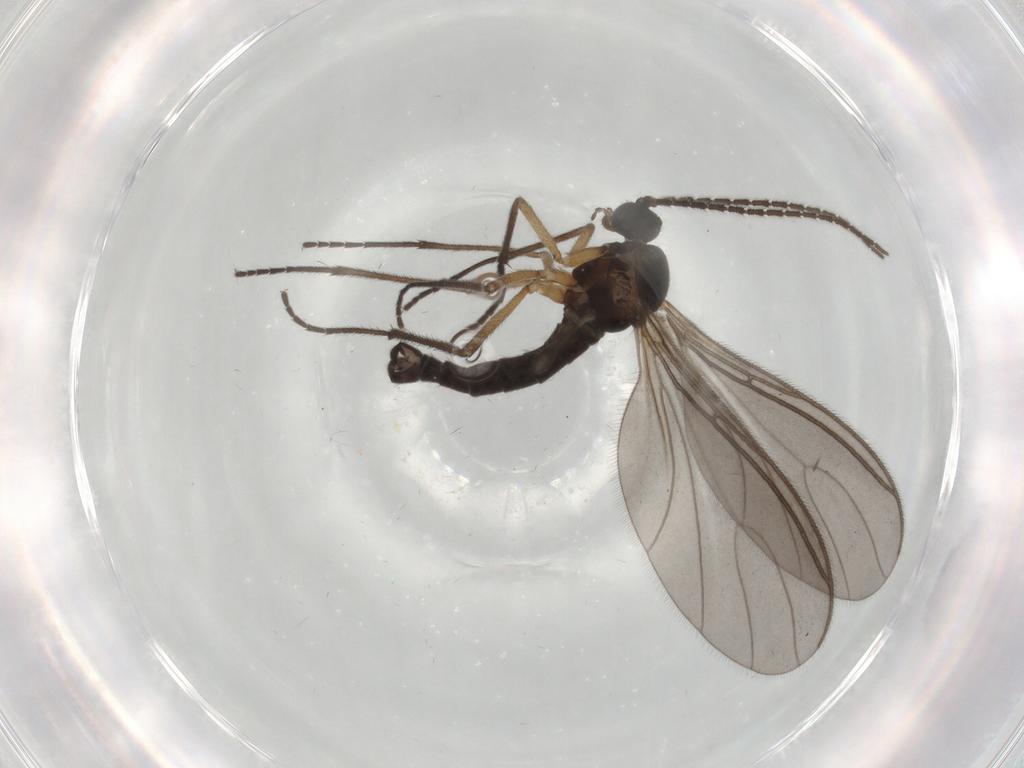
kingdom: Animalia
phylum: Arthropoda
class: Insecta
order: Diptera
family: Sciaridae
